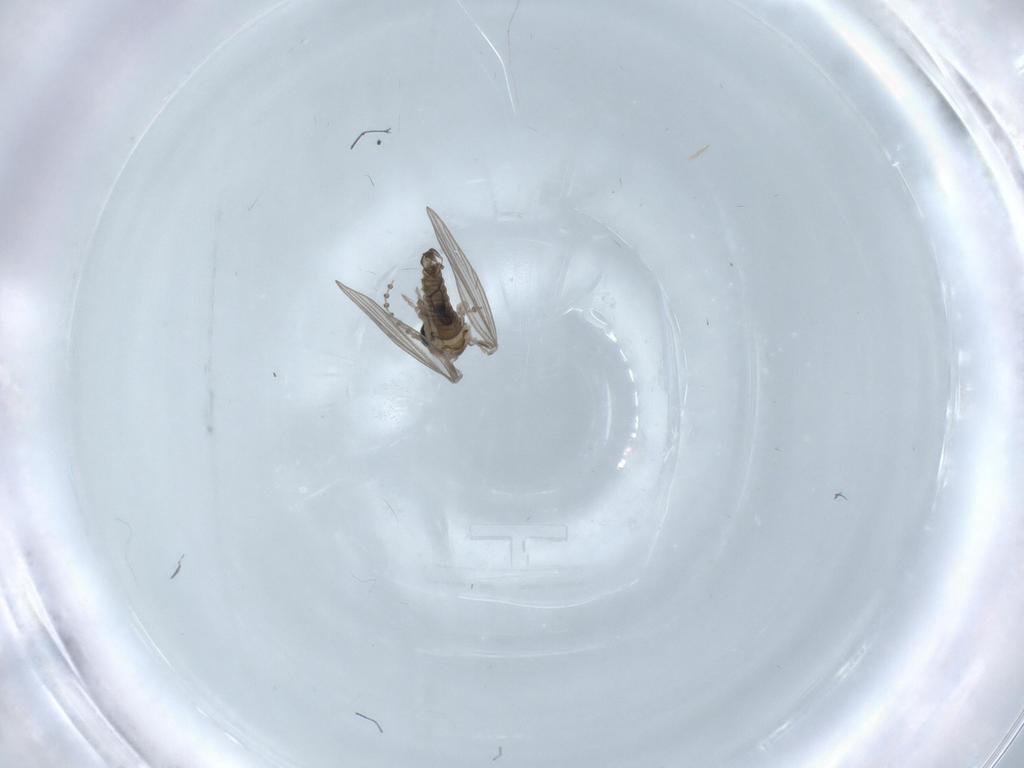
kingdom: Animalia
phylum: Arthropoda
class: Insecta
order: Diptera
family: Psychodidae
